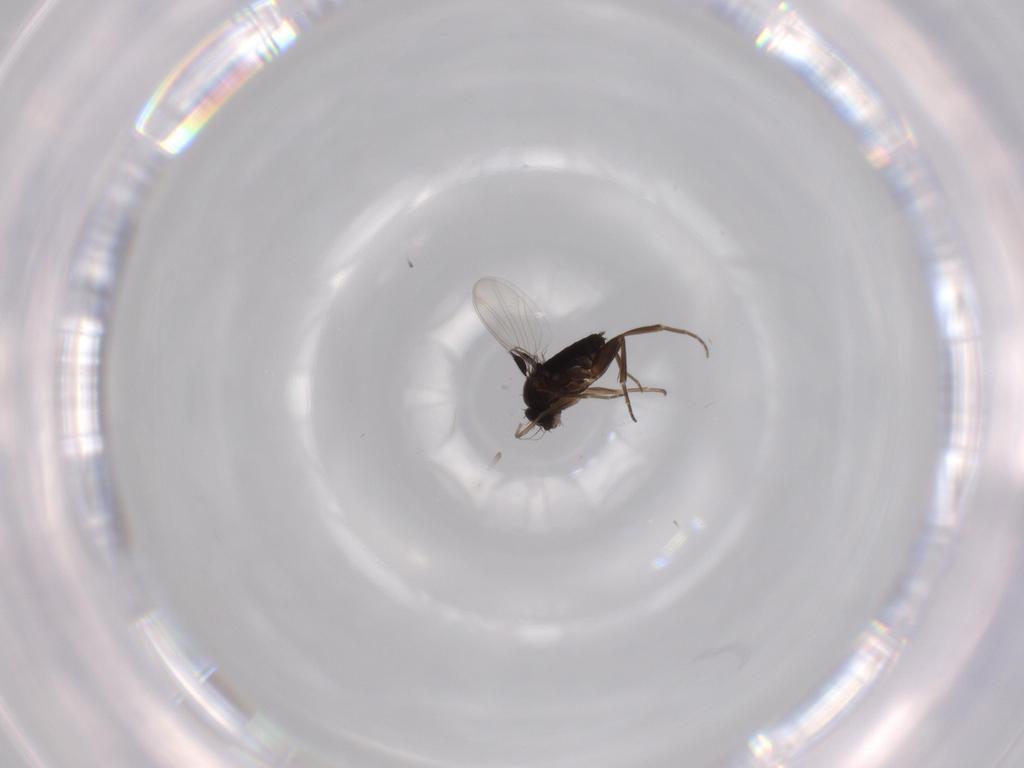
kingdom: Animalia
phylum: Arthropoda
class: Insecta
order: Diptera
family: Phoridae
